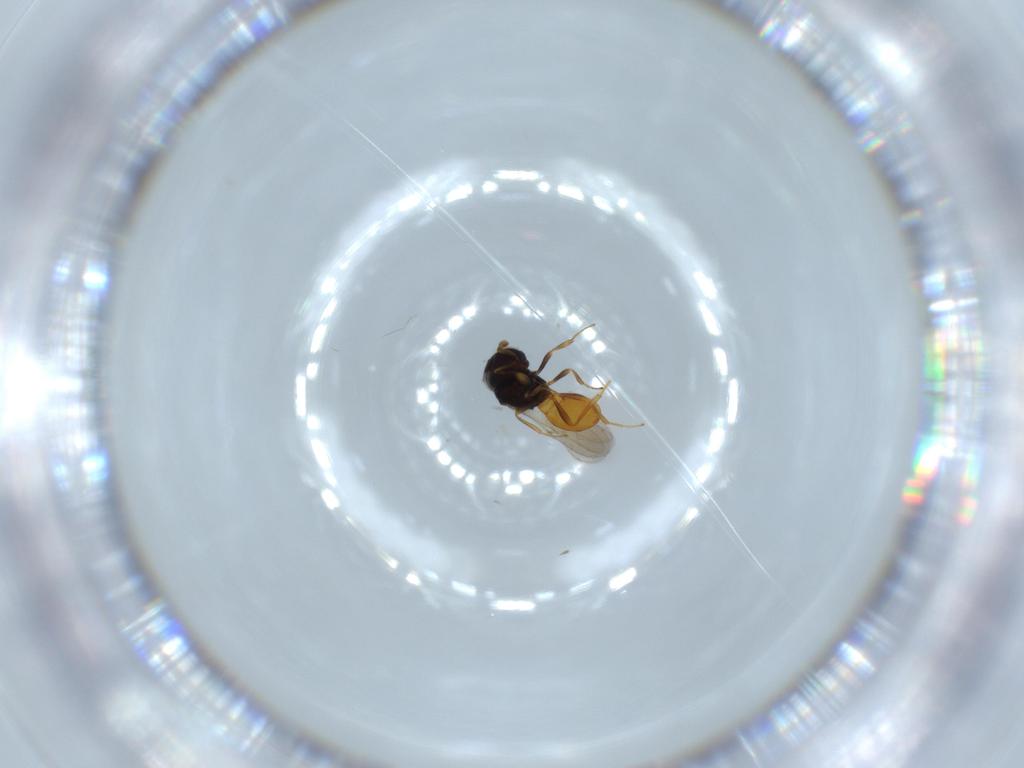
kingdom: Animalia
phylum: Arthropoda
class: Insecta
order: Hymenoptera
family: Scelionidae
